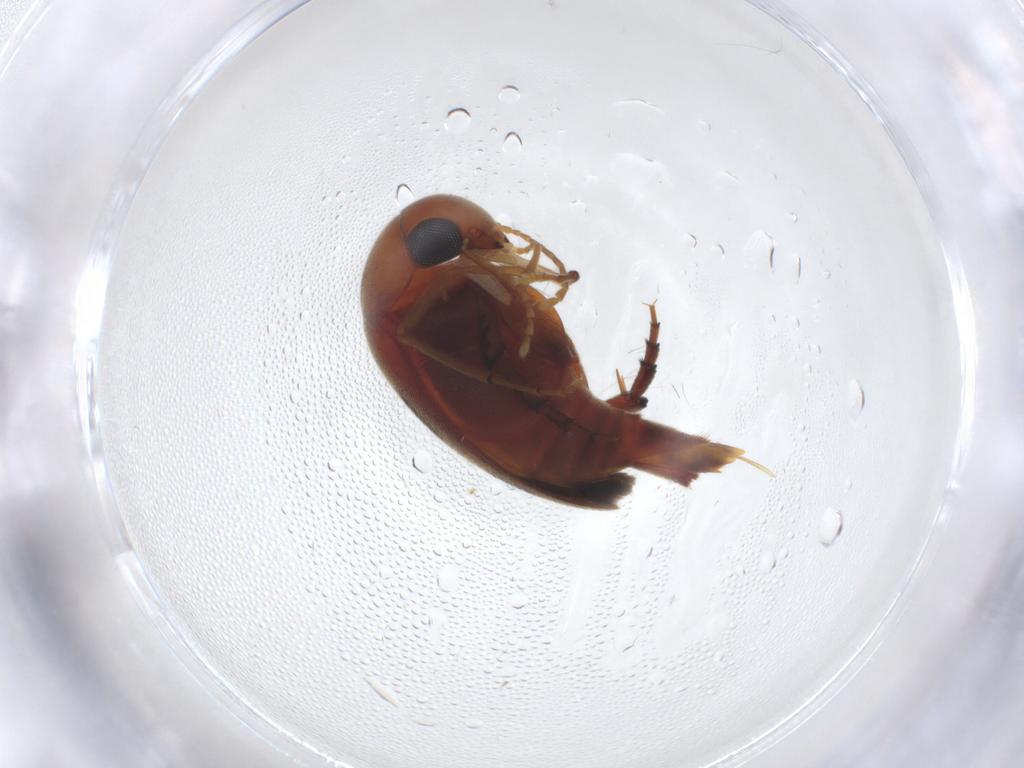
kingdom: Animalia
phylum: Arthropoda
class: Insecta
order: Coleoptera
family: Mordellidae
